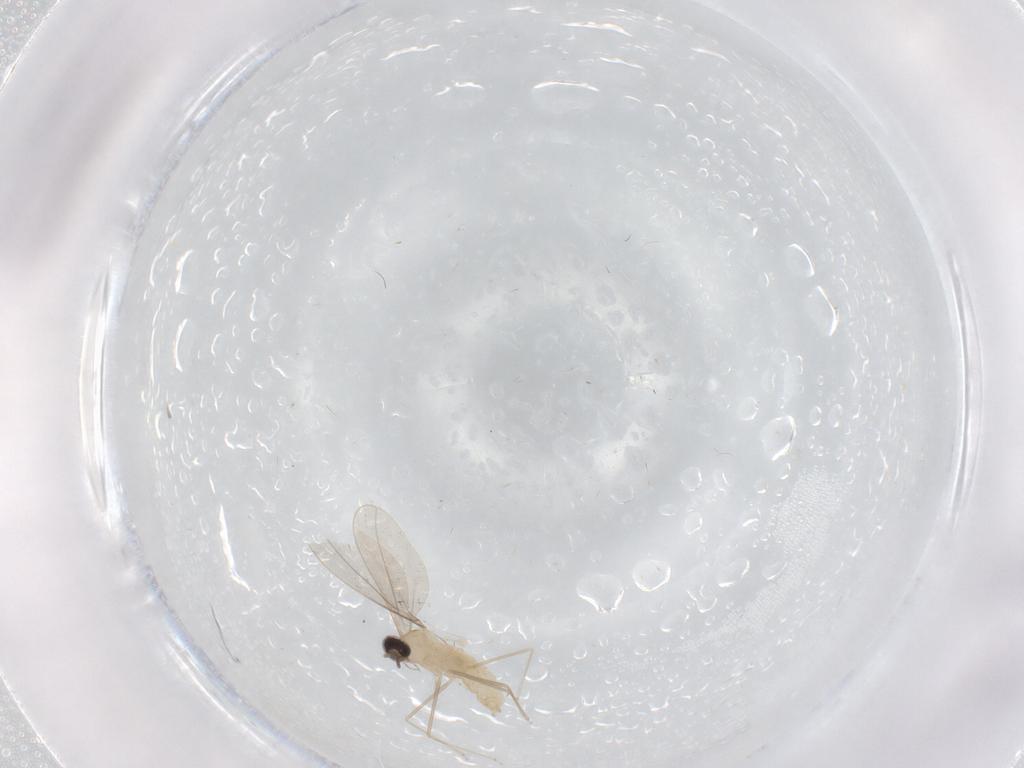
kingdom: Animalia
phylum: Arthropoda
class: Insecta
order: Diptera
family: Cecidomyiidae
